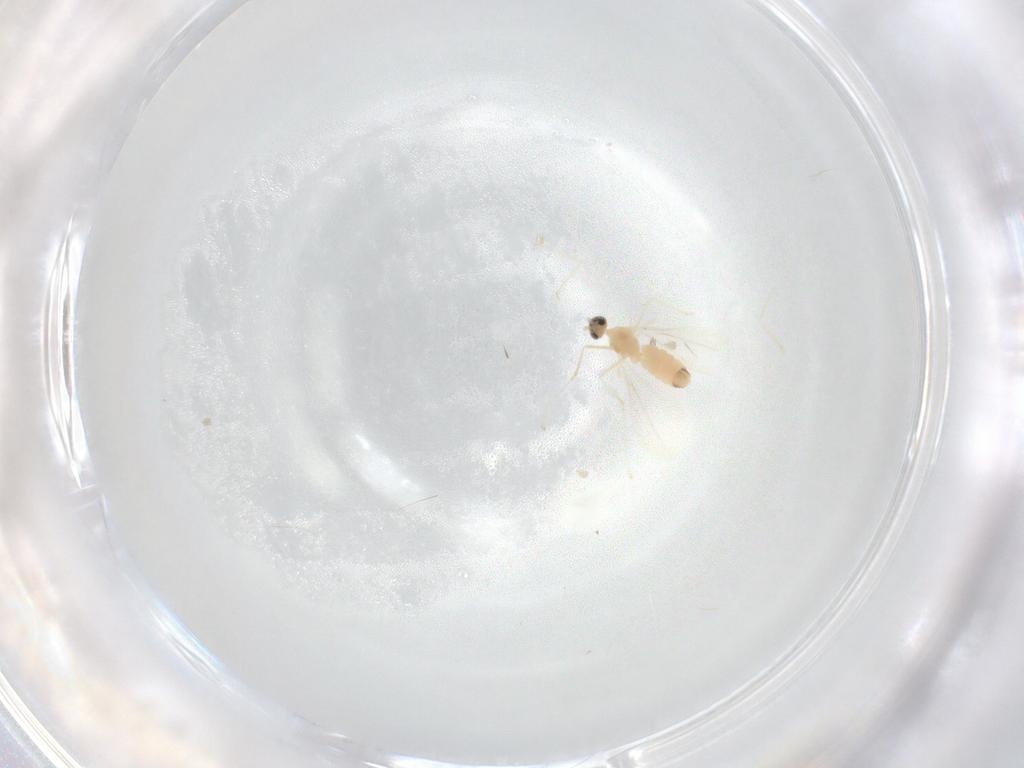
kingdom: Animalia
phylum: Arthropoda
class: Insecta
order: Diptera
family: Cecidomyiidae
